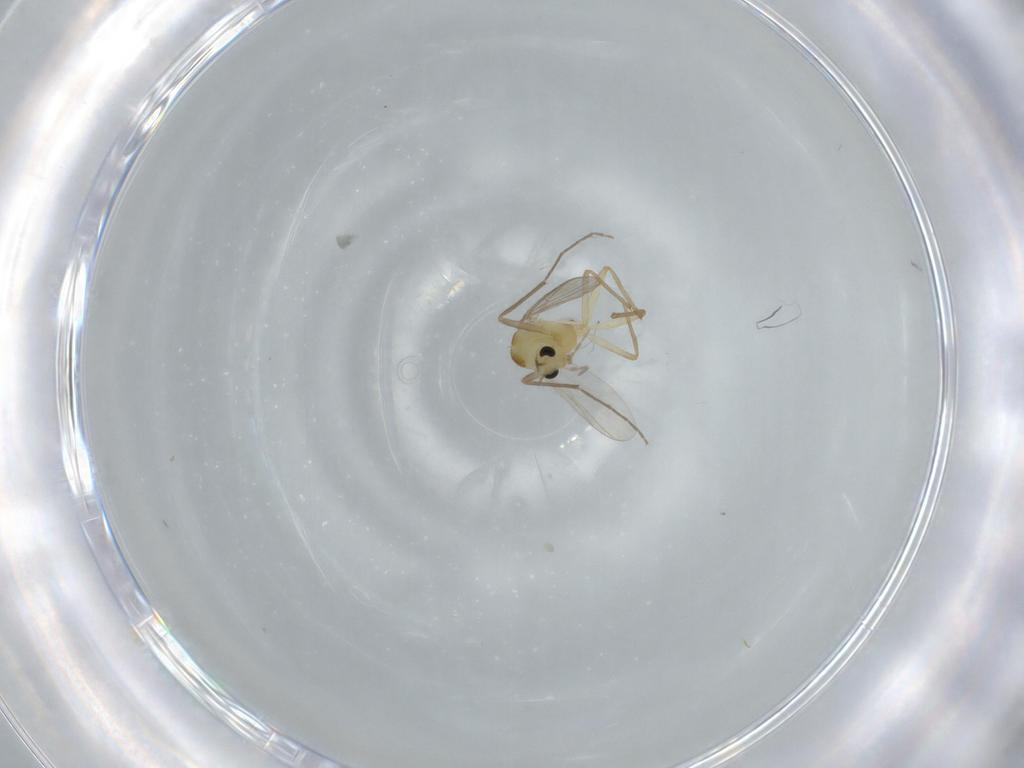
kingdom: Animalia
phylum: Arthropoda
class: Insecta
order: Diptera
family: Chironomidae
